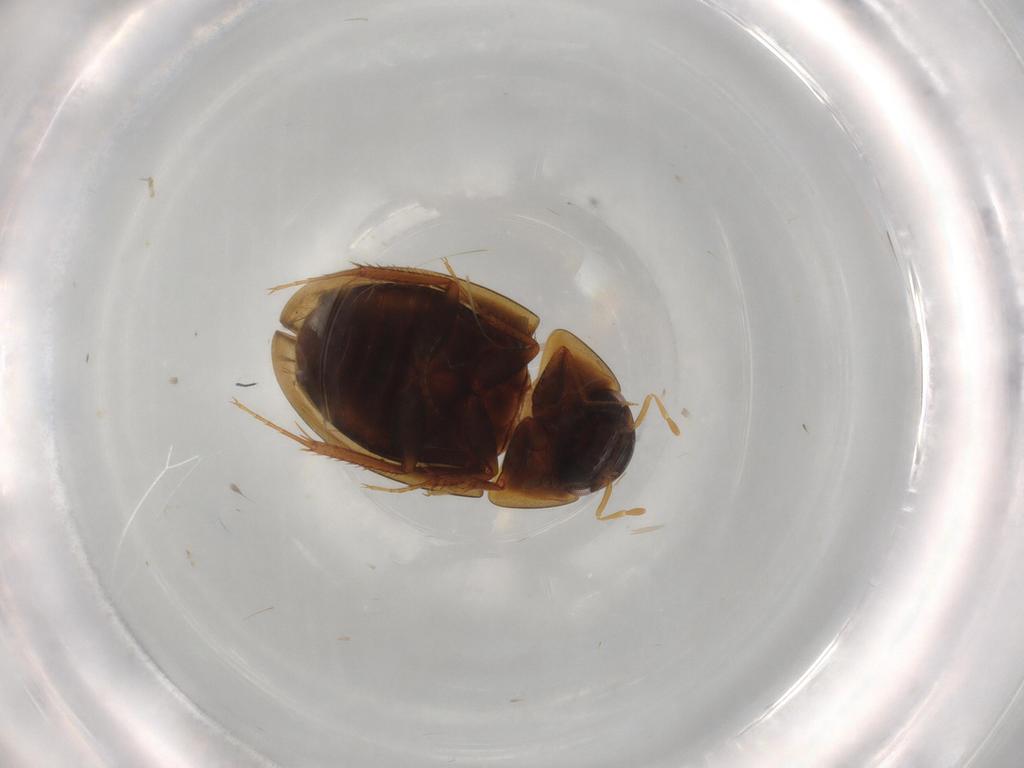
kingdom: Animalia
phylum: Arthropoda
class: Insecta
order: Coleoptera
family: Hydrophilidae
